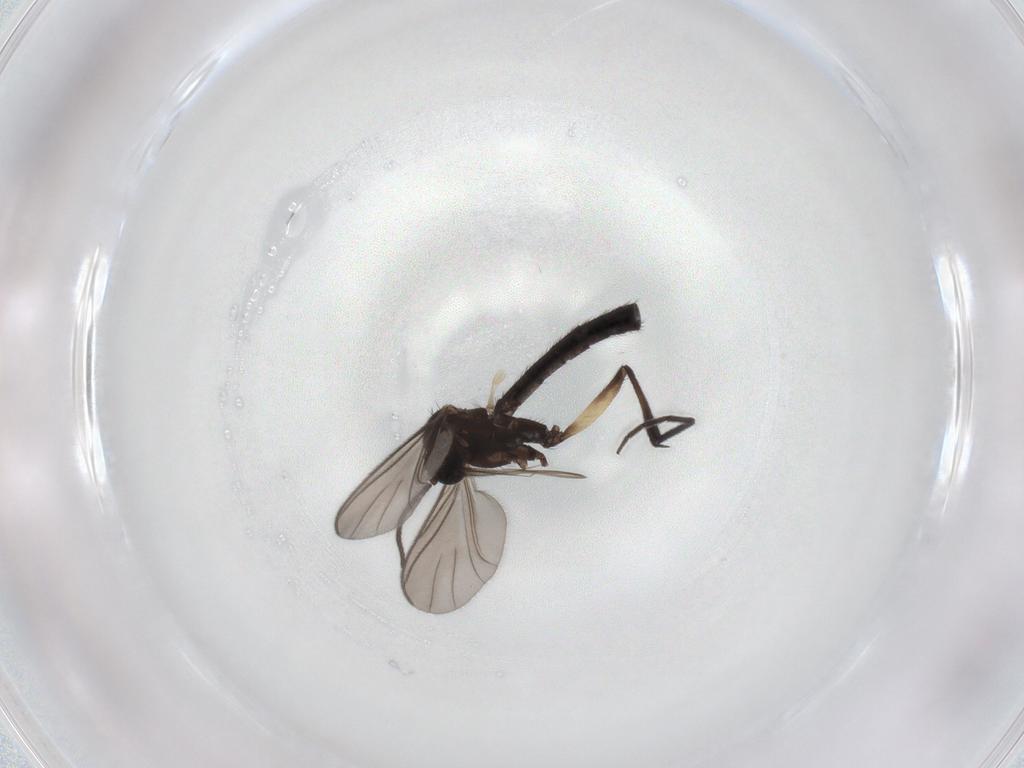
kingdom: Animalia
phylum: Arthropoda
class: Insecta
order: Diptera
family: Keroplatidae
